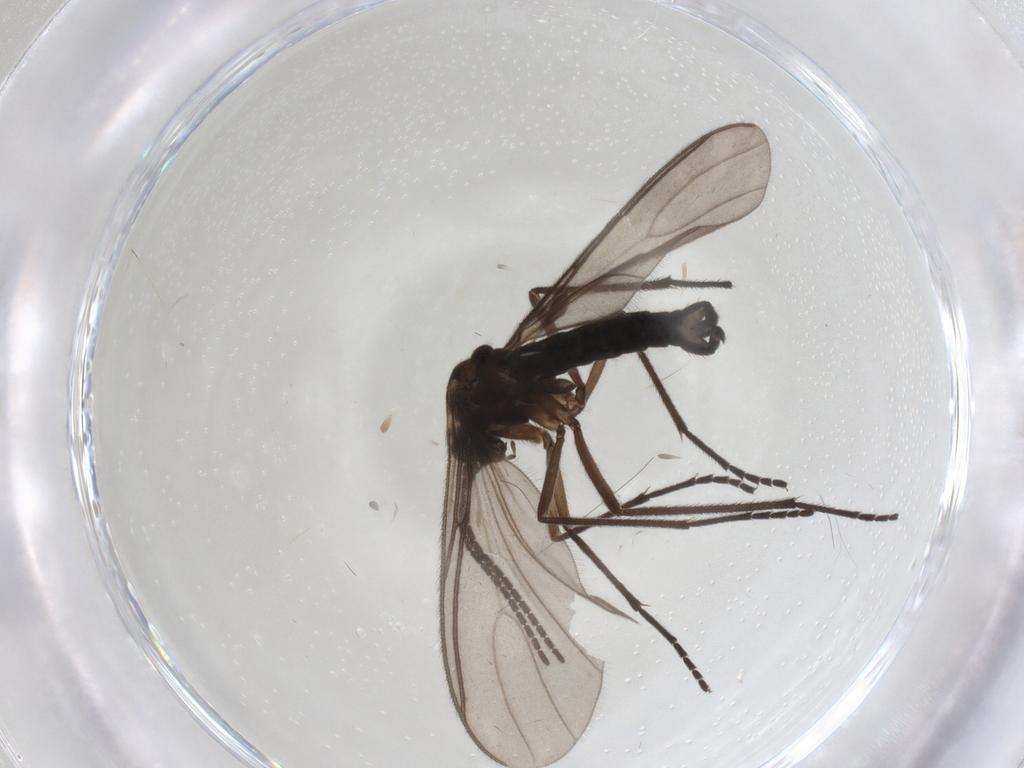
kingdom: Animalia
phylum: Arthropoda
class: Insecta
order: Diptera
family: Sciaridae
